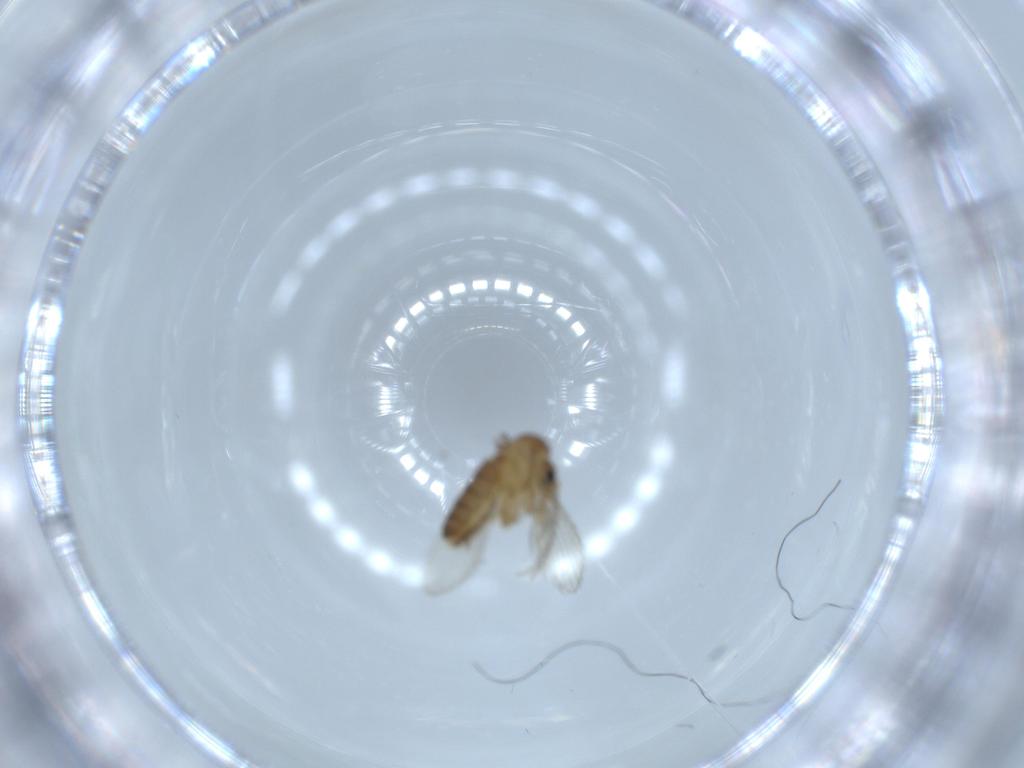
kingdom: Animalia
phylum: Arthropoda
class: Insecta
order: Diptera
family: Psychodidae
